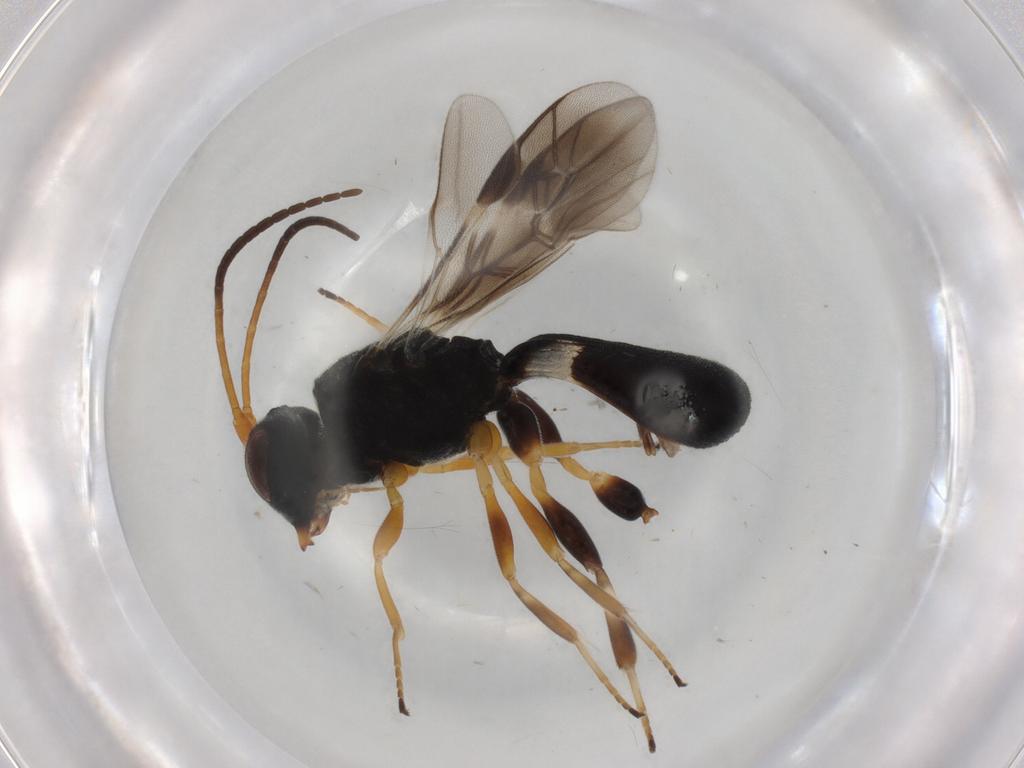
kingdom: Animalia
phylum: Arthropoda
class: Insecta
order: Hymenoptera
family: Braconidae
